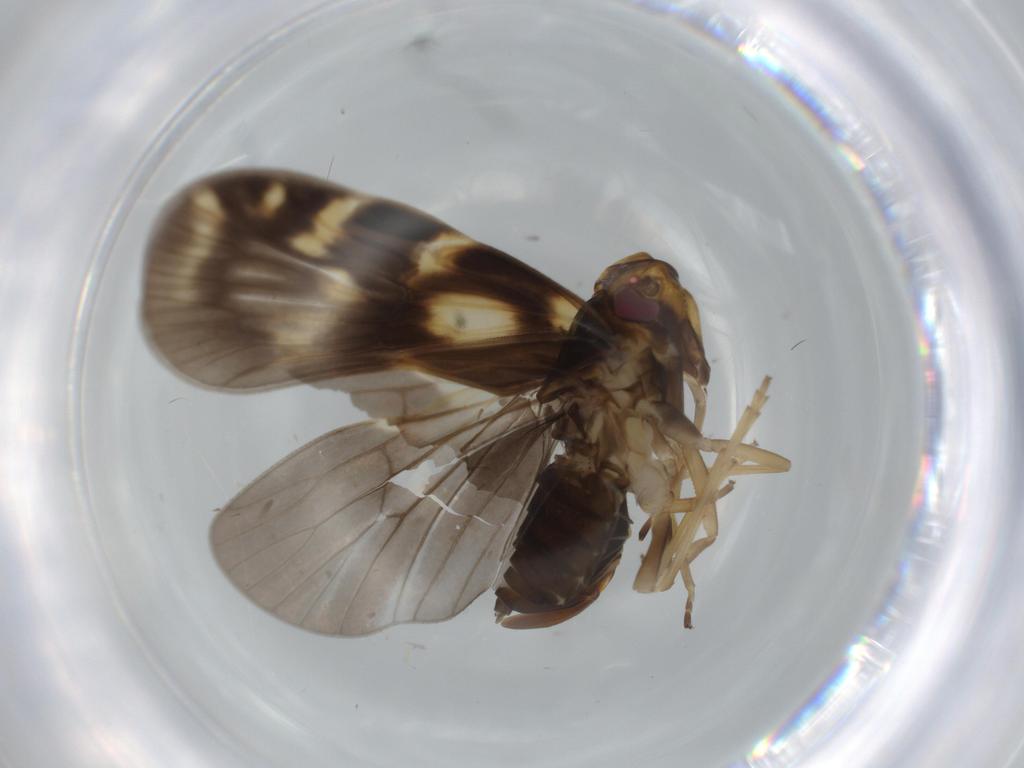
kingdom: Animalia
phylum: Arthropoda
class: Insecta
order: Hemiptera
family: Cixiidae
